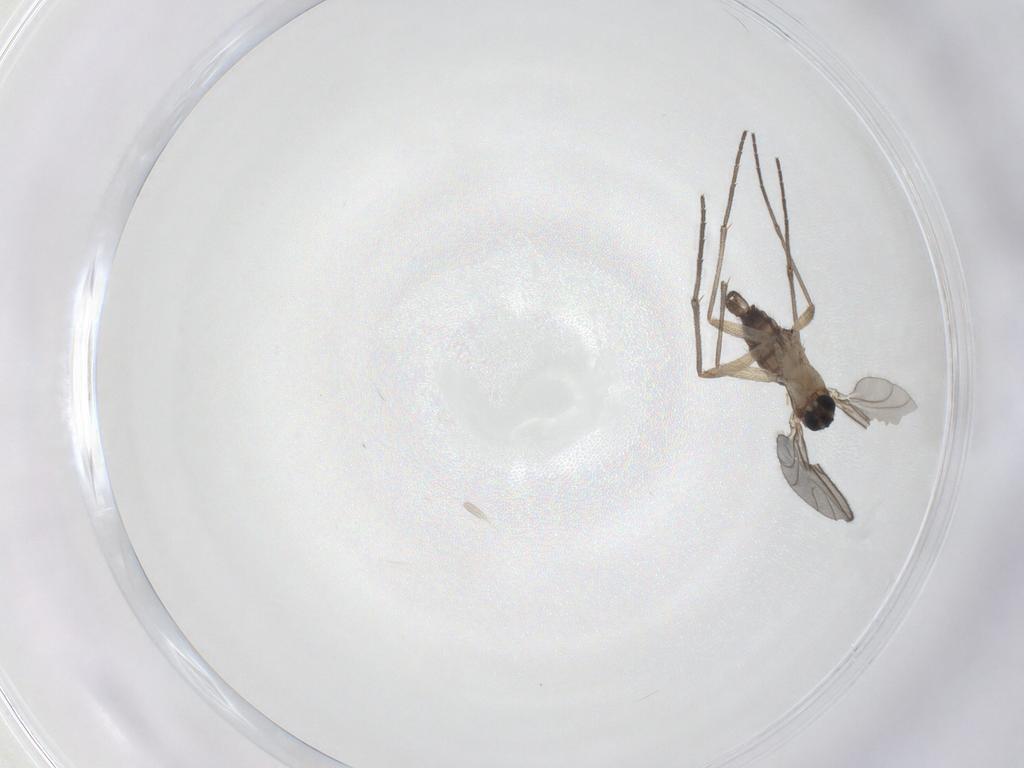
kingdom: Animalia
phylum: Arthropoda
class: Insecta
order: Diptera
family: Sciaridae
